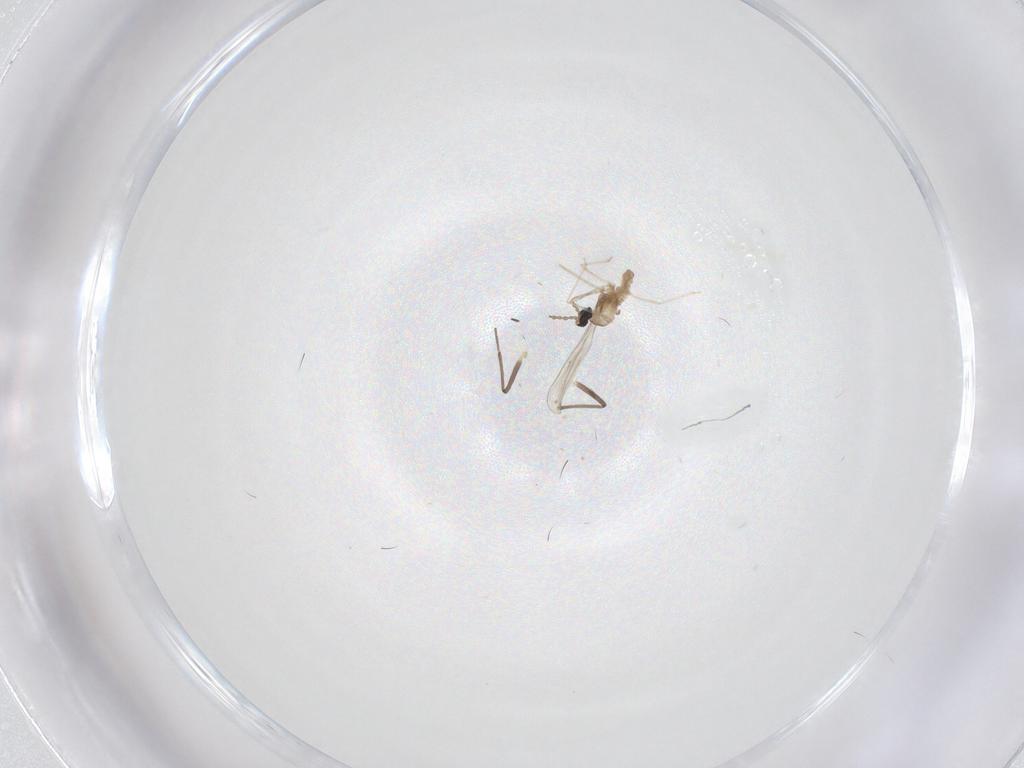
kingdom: Animalia
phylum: Arthropoda
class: Insecta
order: Diptera
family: Chironomidae
